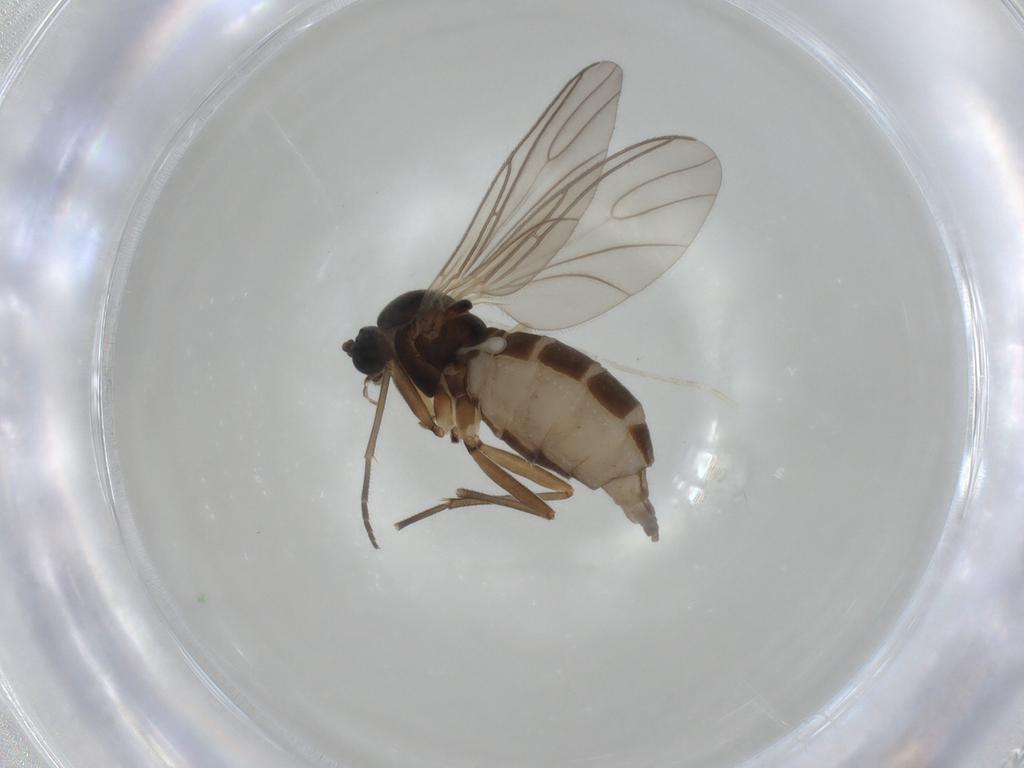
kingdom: Animalia
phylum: Arthropoda
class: Insecta
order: Diptera
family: Sciaridae
